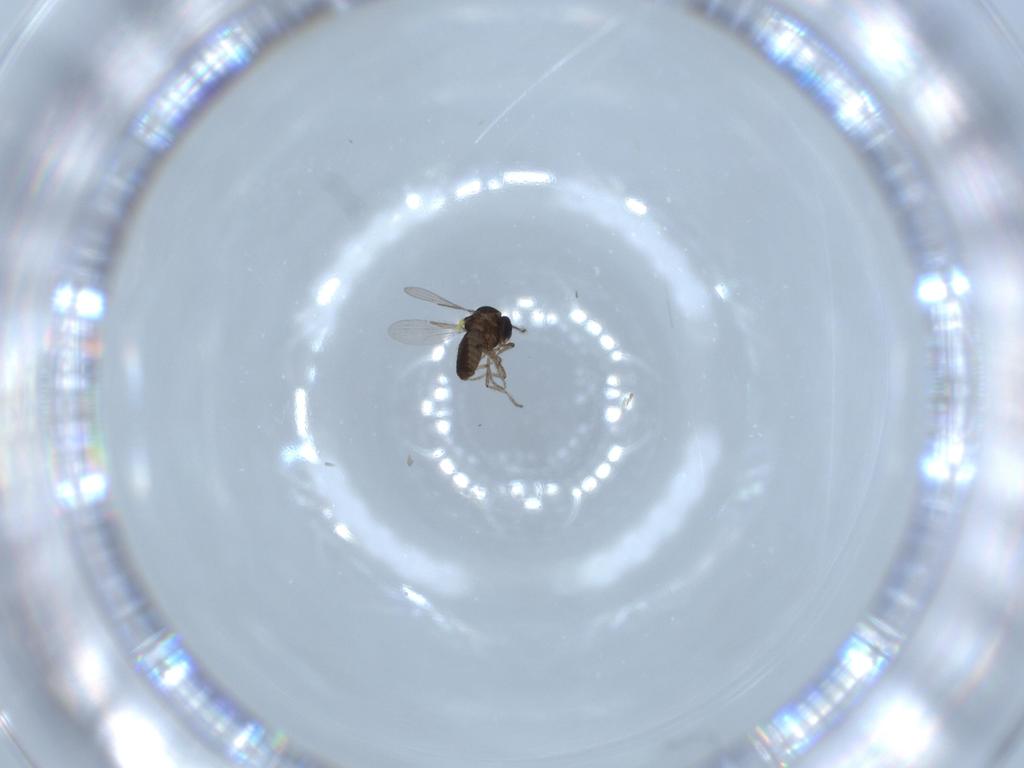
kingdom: Animalia
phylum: Arthropoda
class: Insecta
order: Diptera
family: Ceratopogonidae
